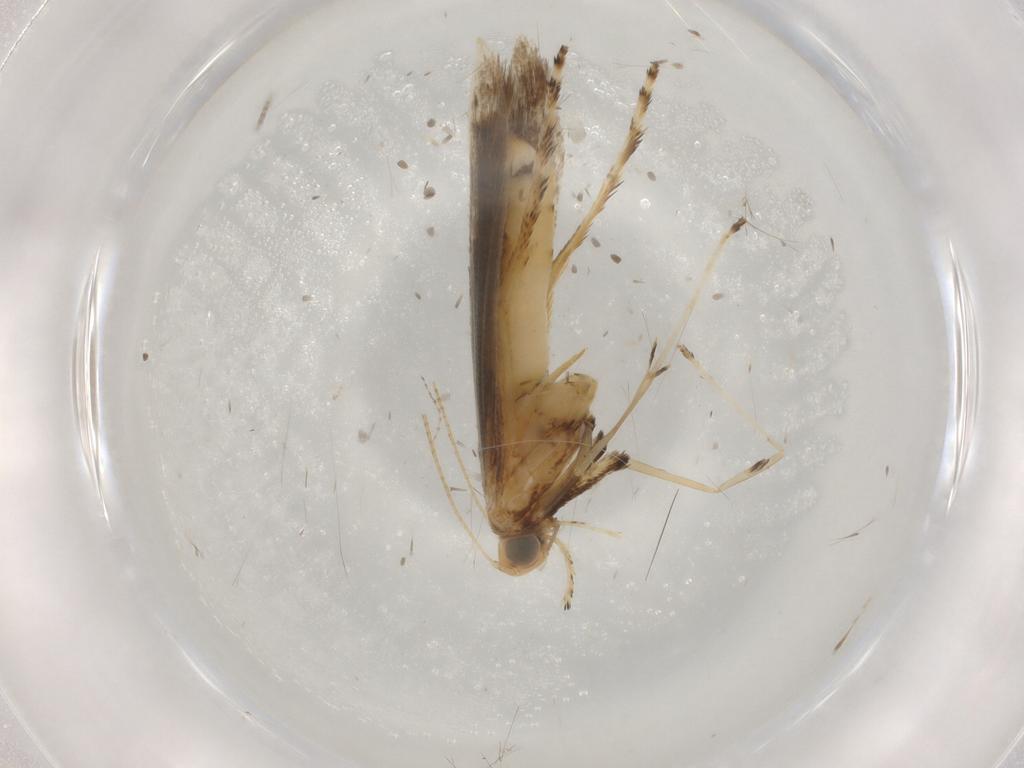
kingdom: Animalia
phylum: Arthropoda
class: Insecta
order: Lepidoptera
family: Gracillariidae
